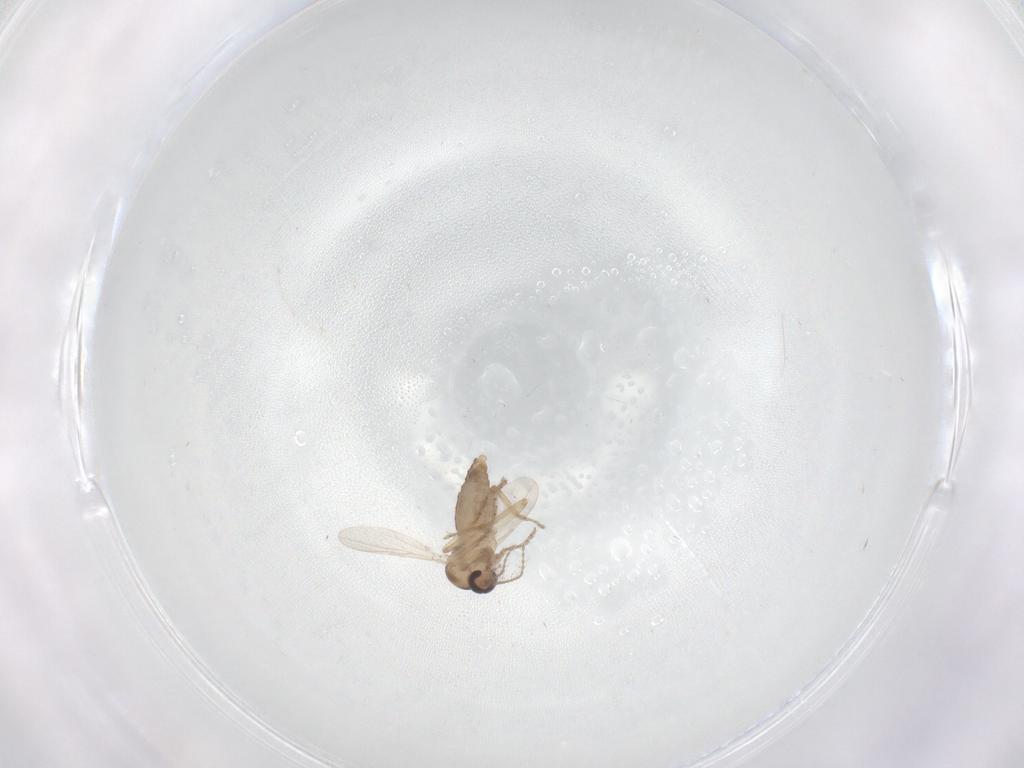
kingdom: Animalia
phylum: Arthropoda
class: Insecta
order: Diptera
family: Ceratopogonidae
